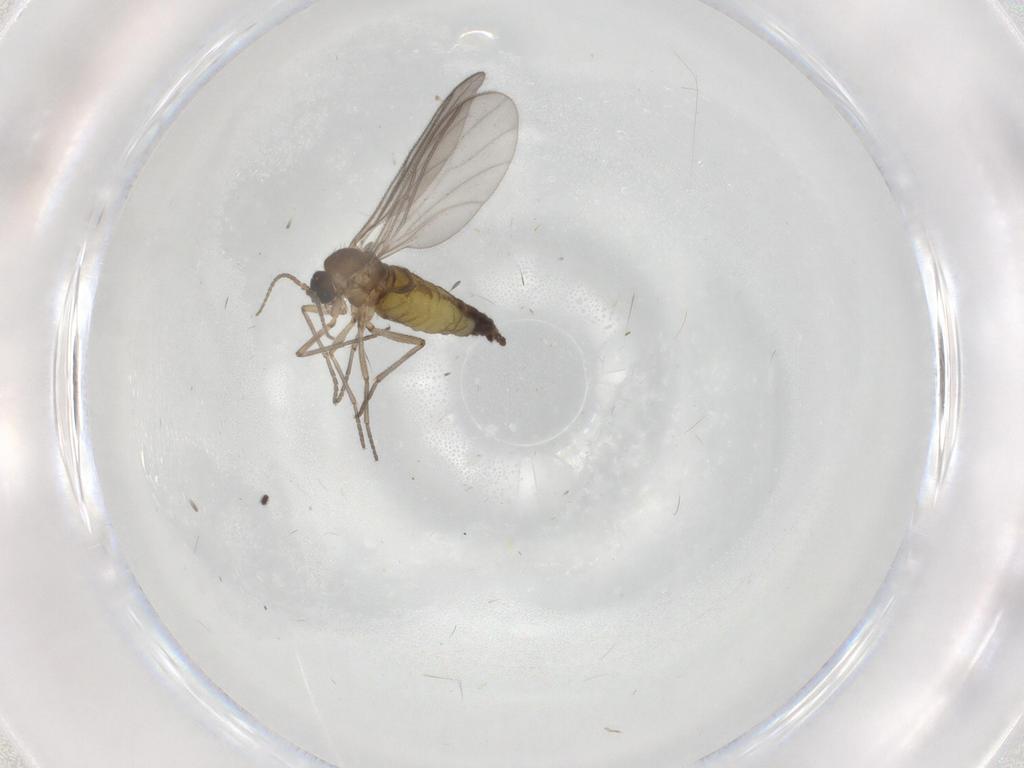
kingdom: Animalia
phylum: Arthropoda
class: Insecta
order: Diptera
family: Sciaridae
